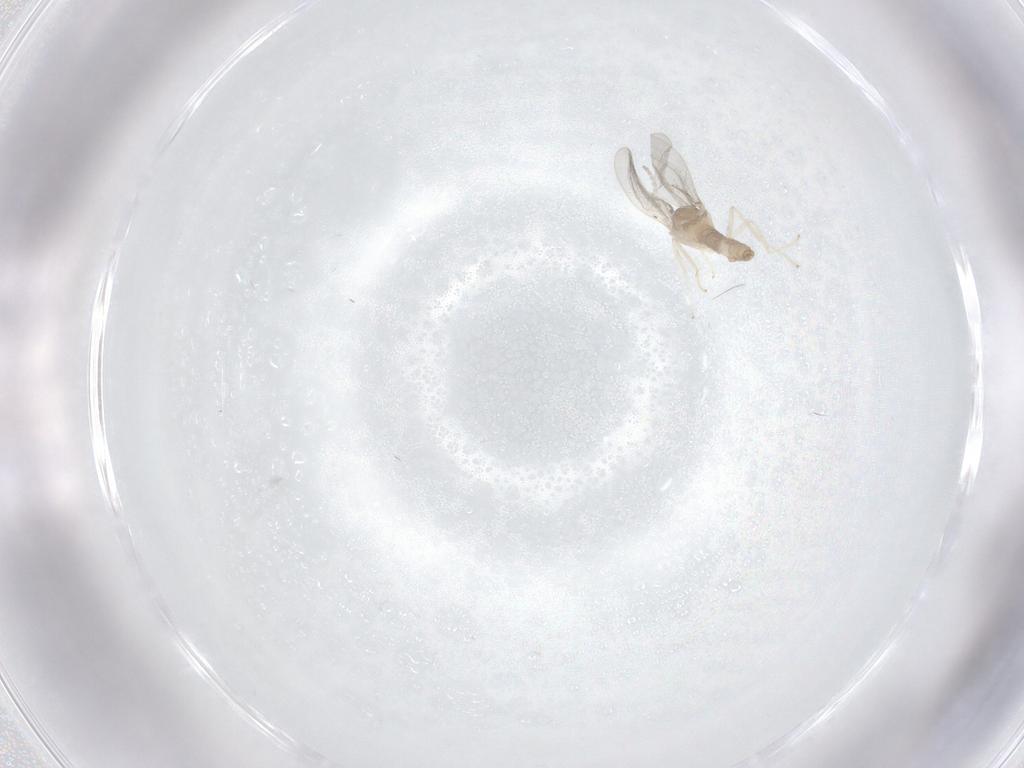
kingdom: Animalia
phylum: Arthropoda
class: Insecta
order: Diptera
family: Cecidomyiidae
